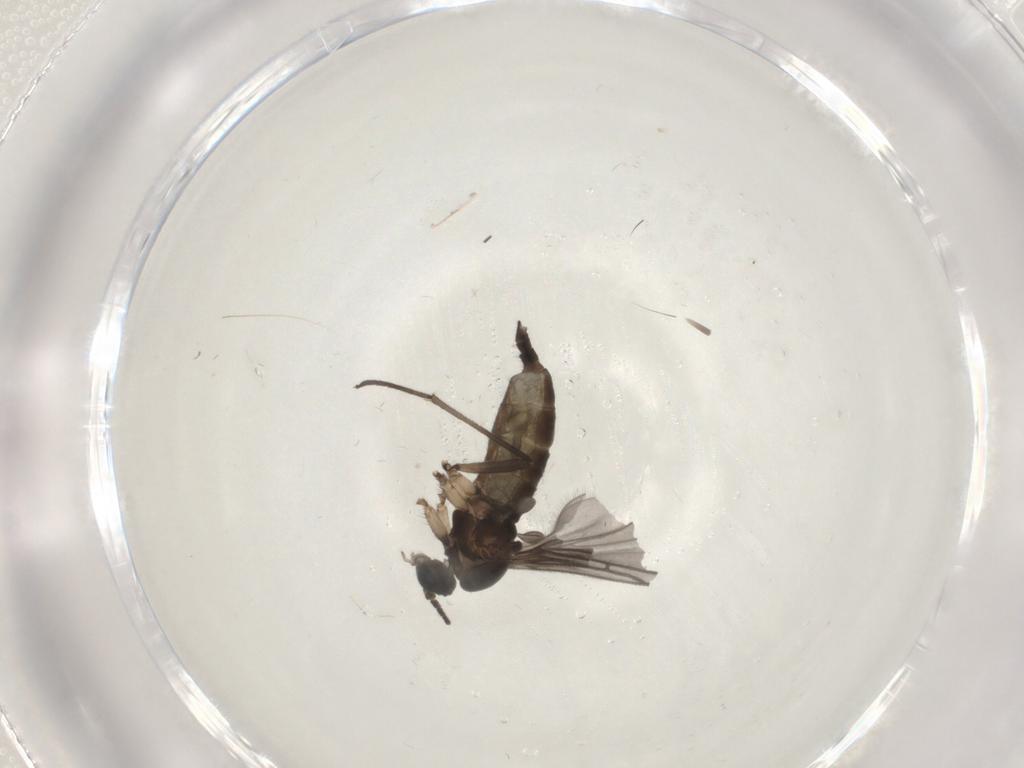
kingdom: Animalia
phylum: Arthropoda
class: Insecta
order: Diptera
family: Sciaridae
